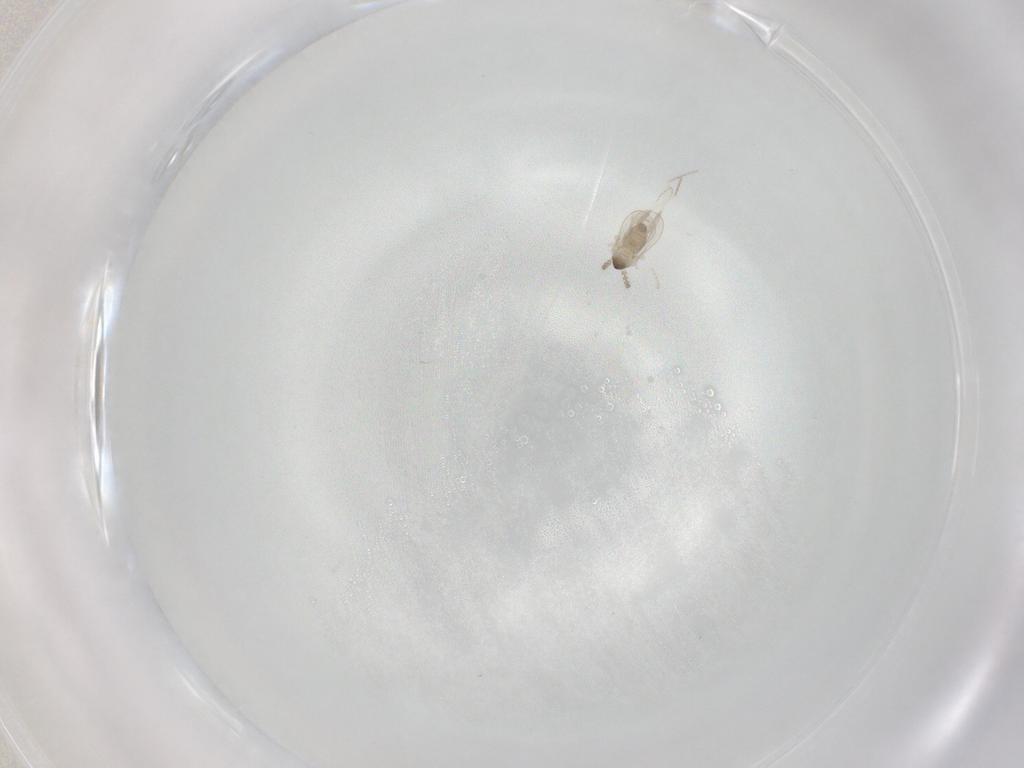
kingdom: Animalia
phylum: Arthropoda
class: Insecta
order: Diptera
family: Cecidomyiidae
